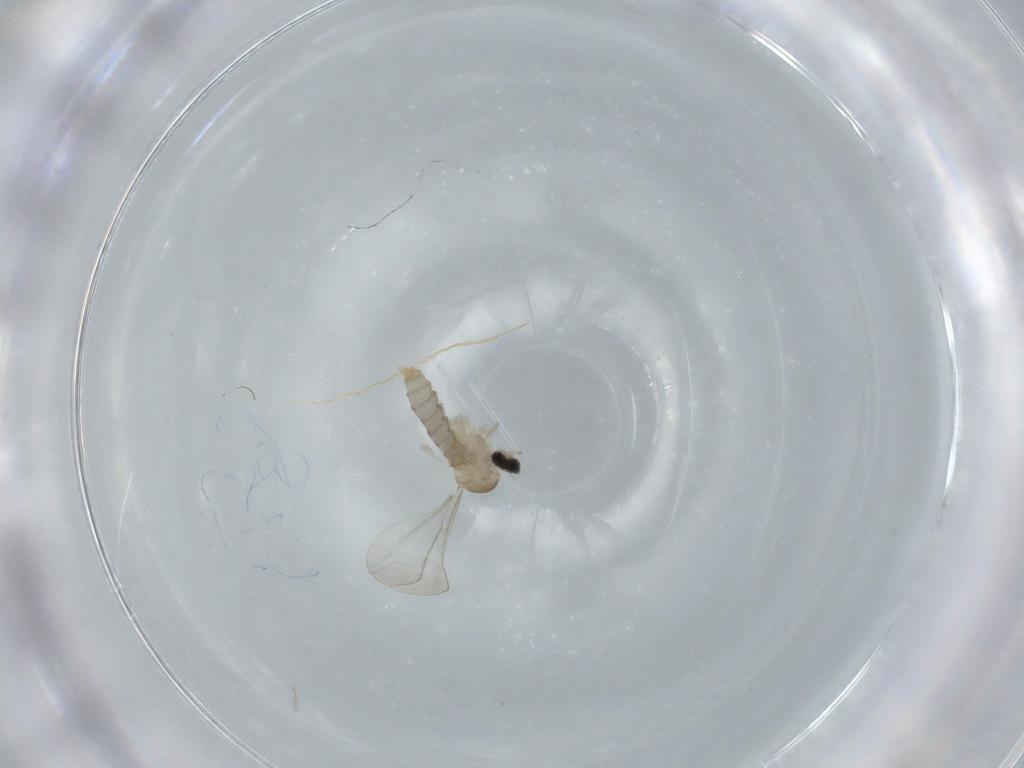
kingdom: Animalia
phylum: Arthropoda
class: Insecta
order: Diptera
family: Cecidomyiidae
